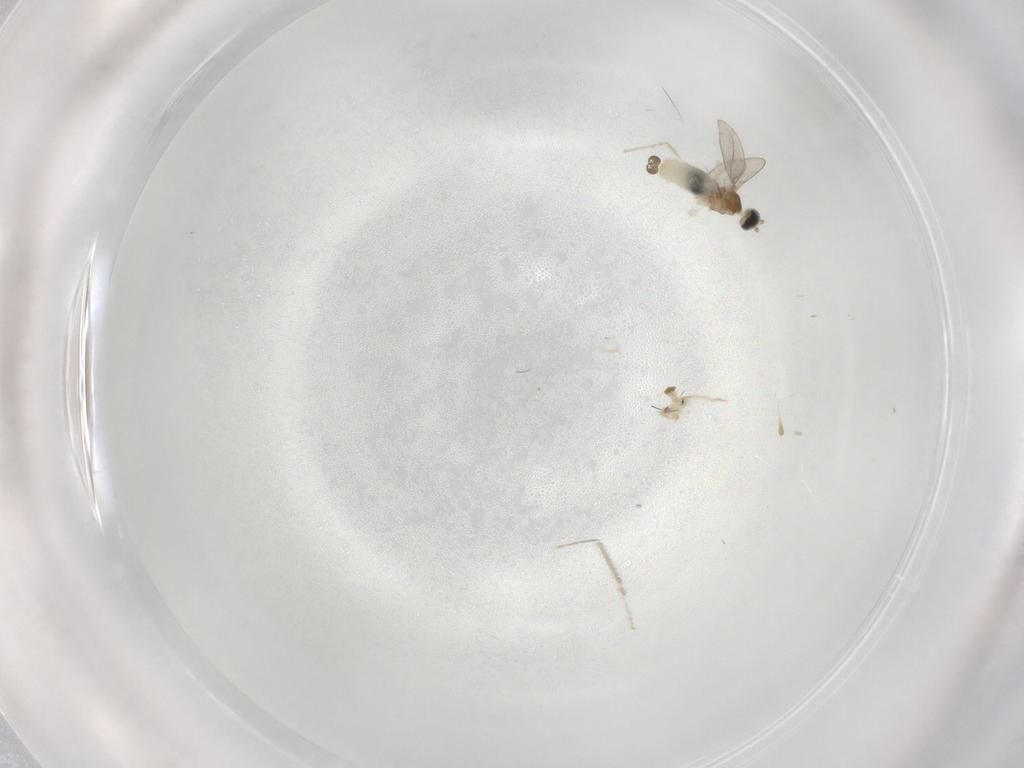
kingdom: Animalia
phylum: Arthropoda
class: Insecta
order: Diptera
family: Cecidomyiidae
